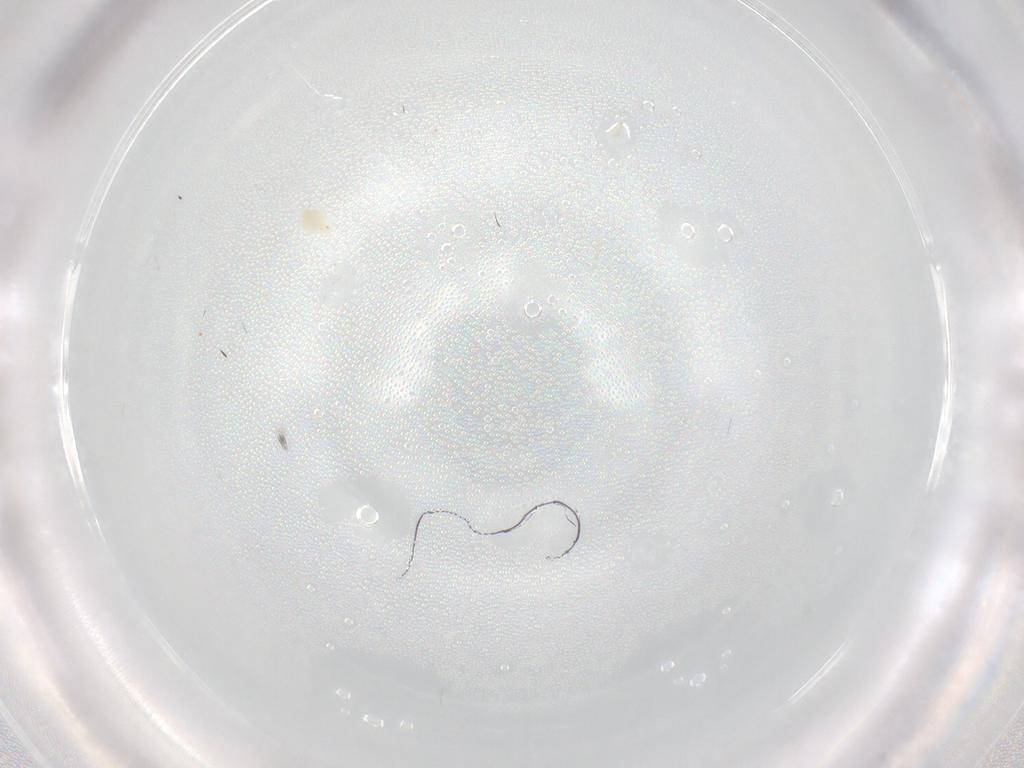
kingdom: Animalia
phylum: Arthropoda
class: Arachnida
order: Trombidiformes
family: Tetranychidae
